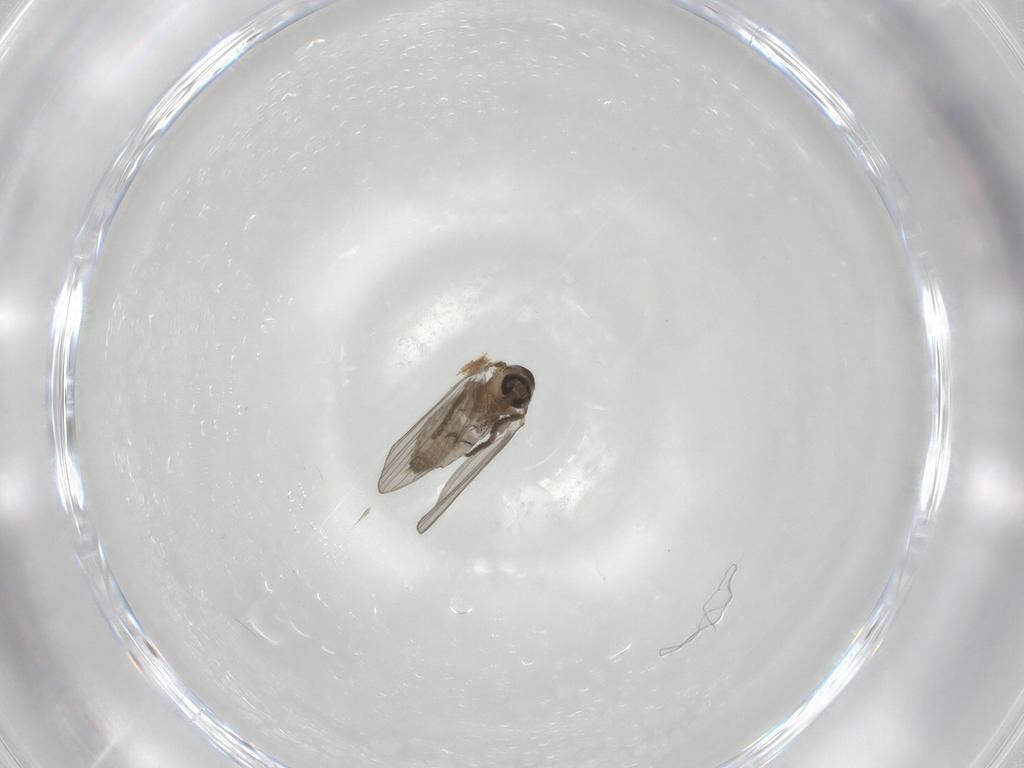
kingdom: Animalia
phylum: Arthropoda
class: Insecta
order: Diptera
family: Psychodidae
